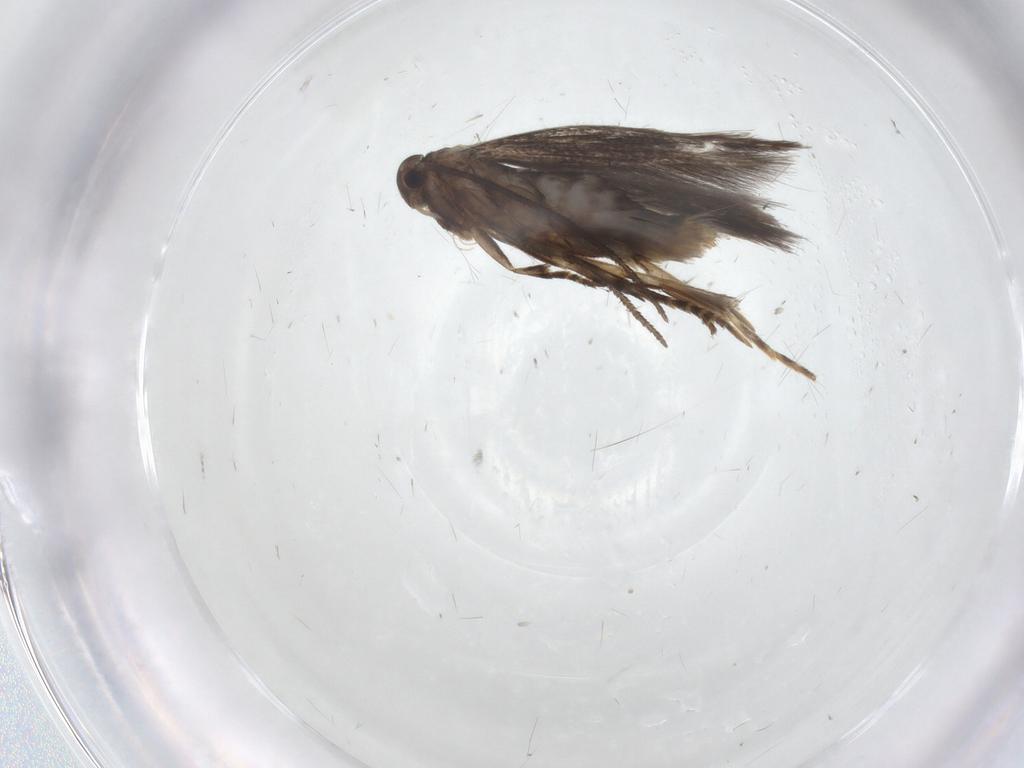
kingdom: Animalia
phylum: Arthropoda
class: Insecta
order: Lepidoptera
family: Elachistidae
